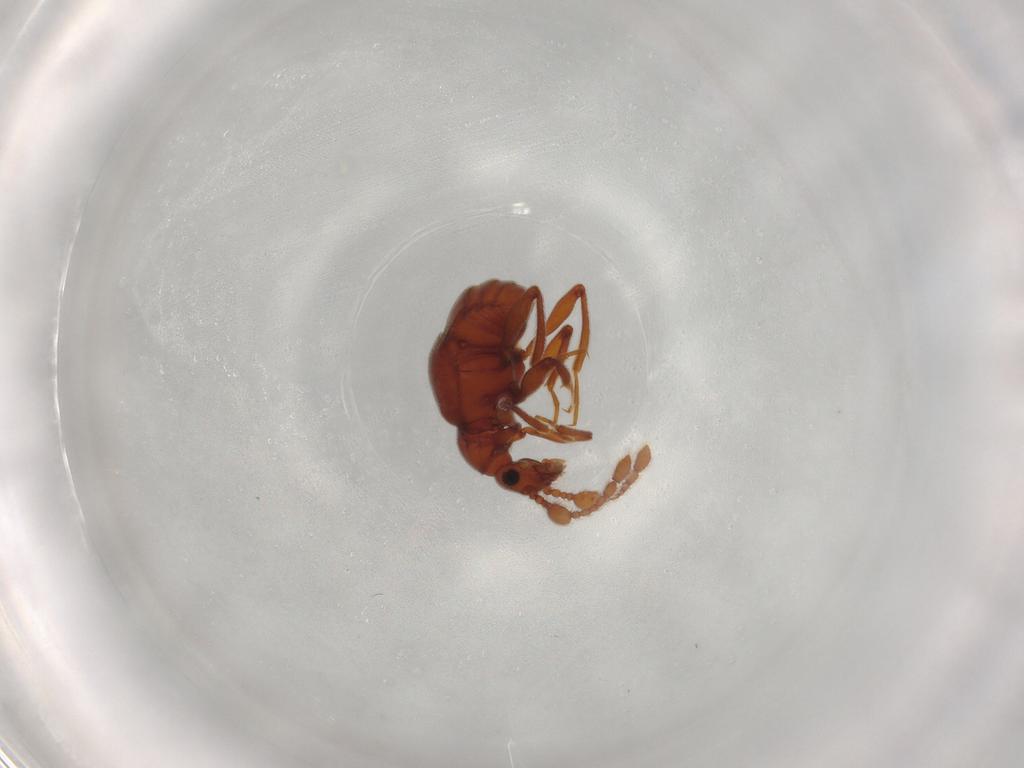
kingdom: Animalia
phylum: Arthropoda
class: Insecta
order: Coleoptera
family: Staphylinidae
